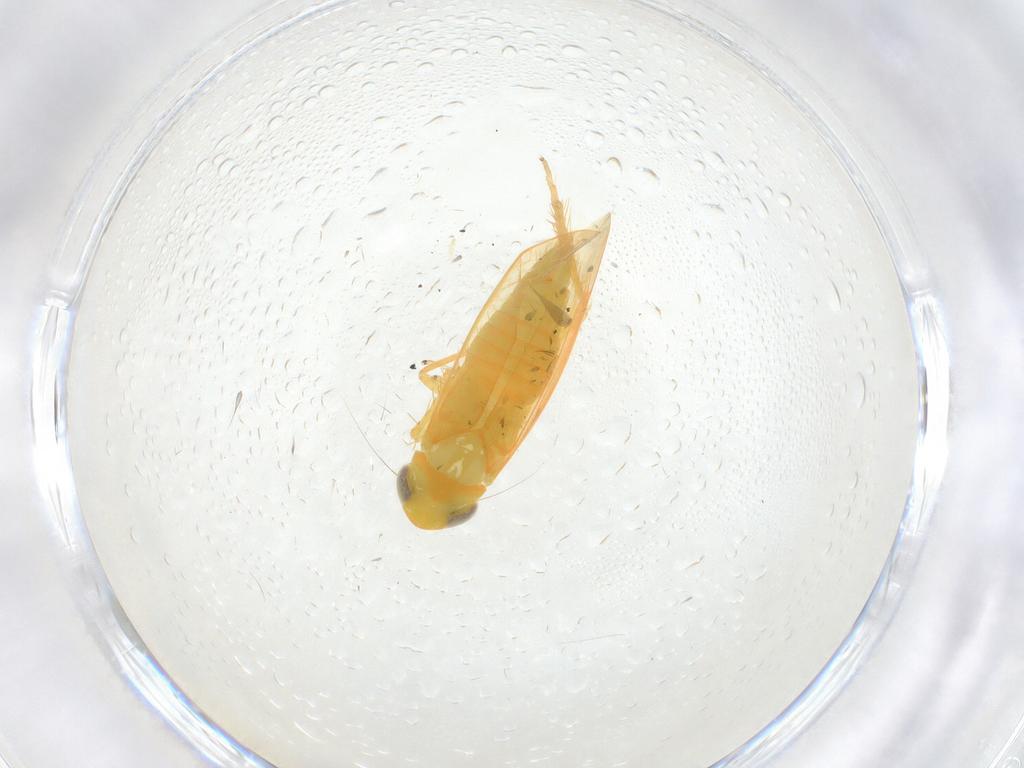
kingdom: Animalia
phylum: Arthropoda
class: Insecta
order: Hemiptera
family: Cicadellidae
